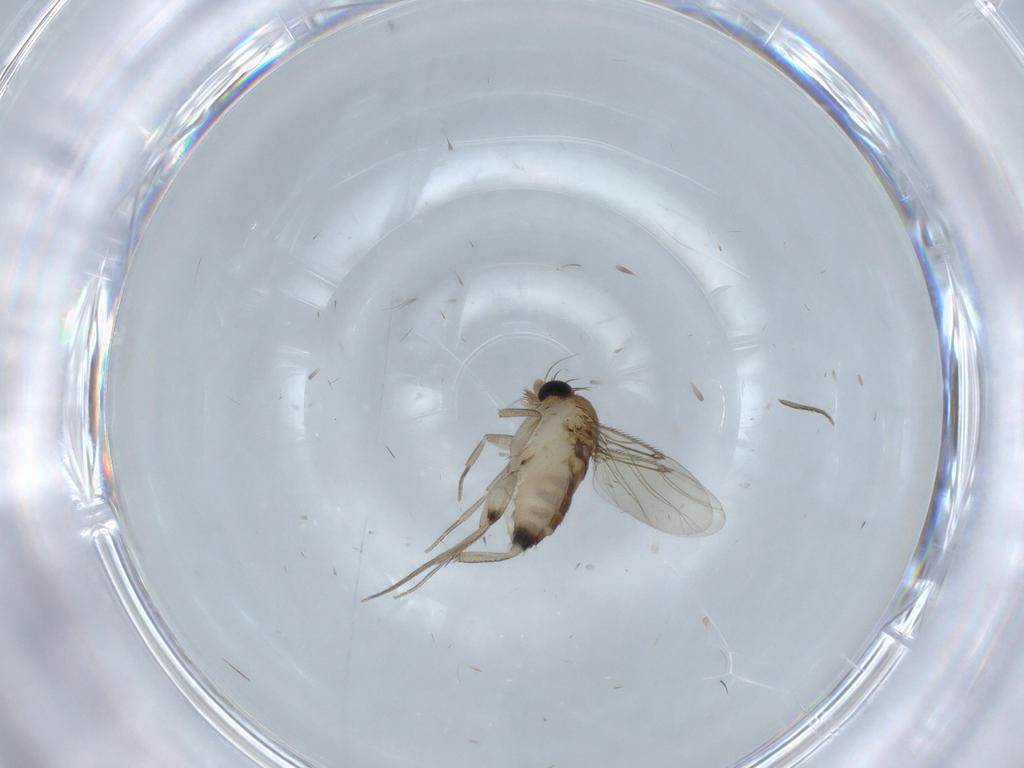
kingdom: Animalia
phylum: Arthropoda
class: Insecta
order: Diptera
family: Phoridae
